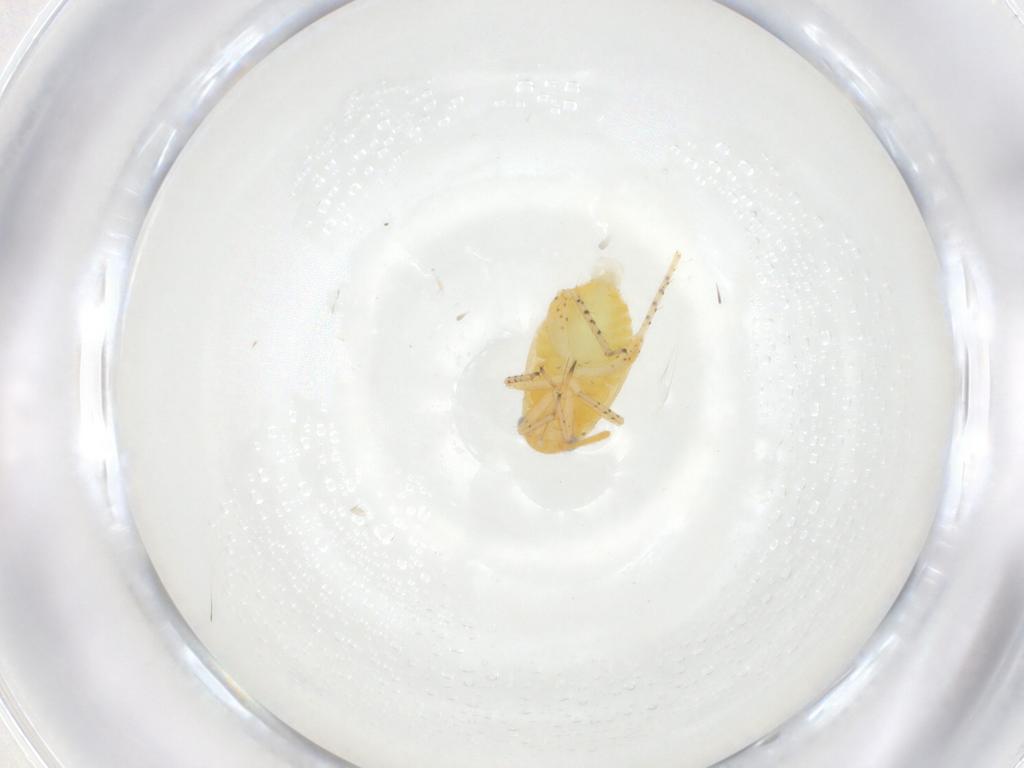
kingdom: Animalia
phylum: Arthropoda
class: Insecta
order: Hemiptera
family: Miridae
